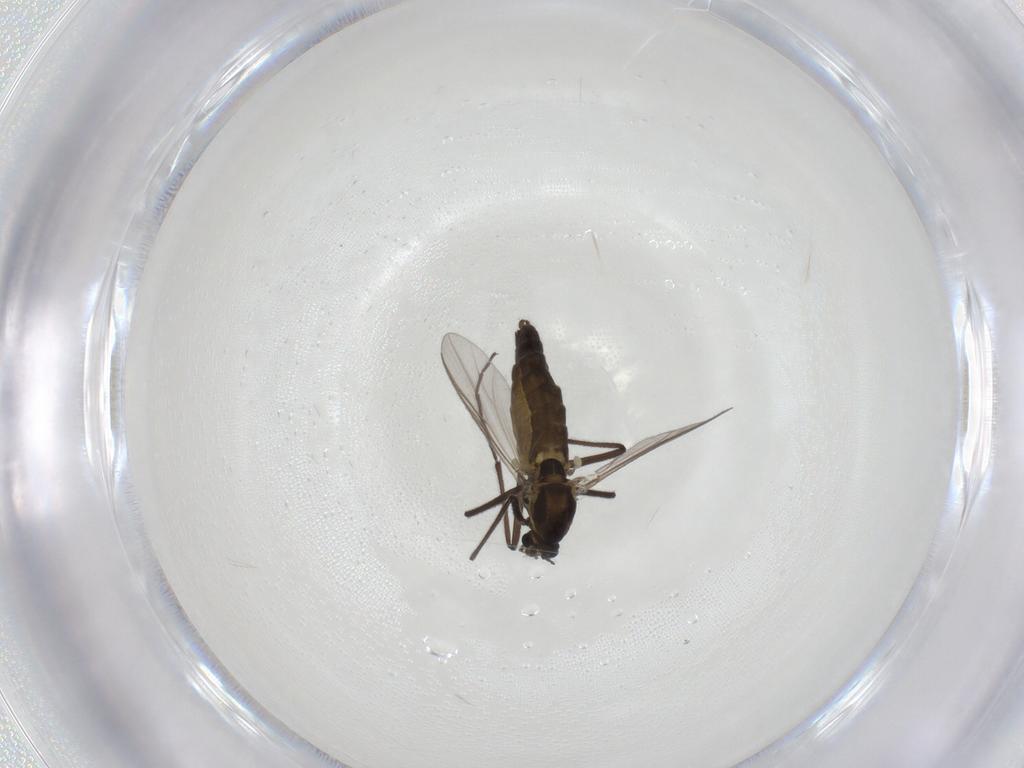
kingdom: Animalia
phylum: Arthropoda
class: Insecta
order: Diptera
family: Chironomidae
